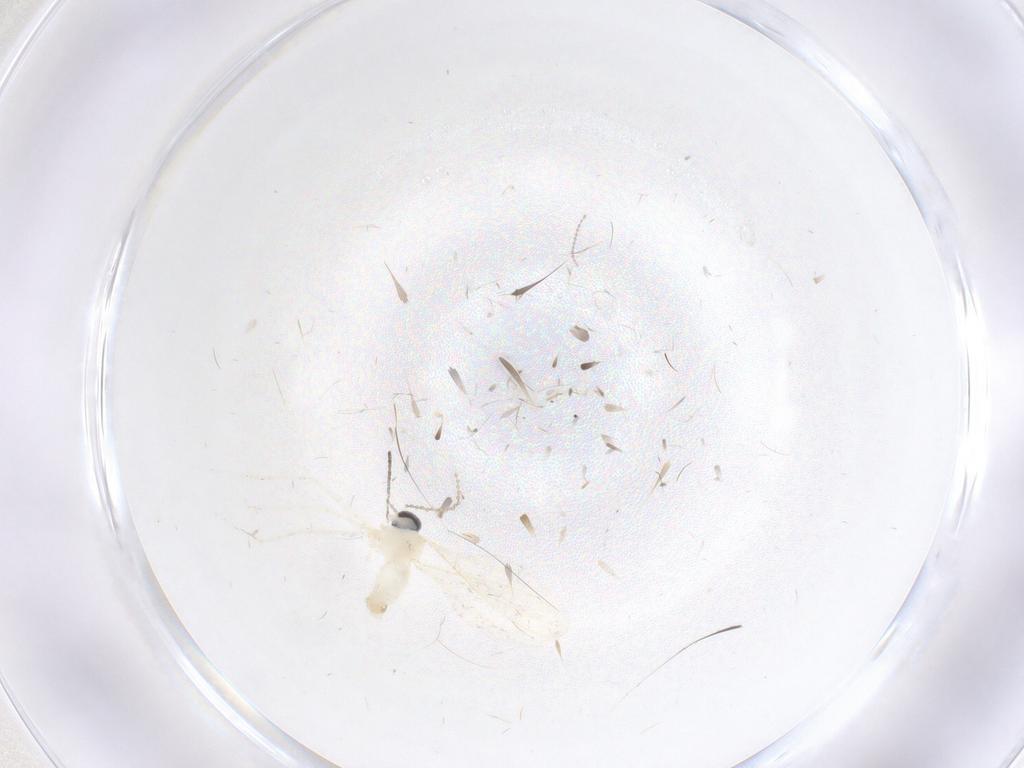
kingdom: Animalia
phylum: Arthropoda
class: Insecta
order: Diptera
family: Cecidomyiidae
